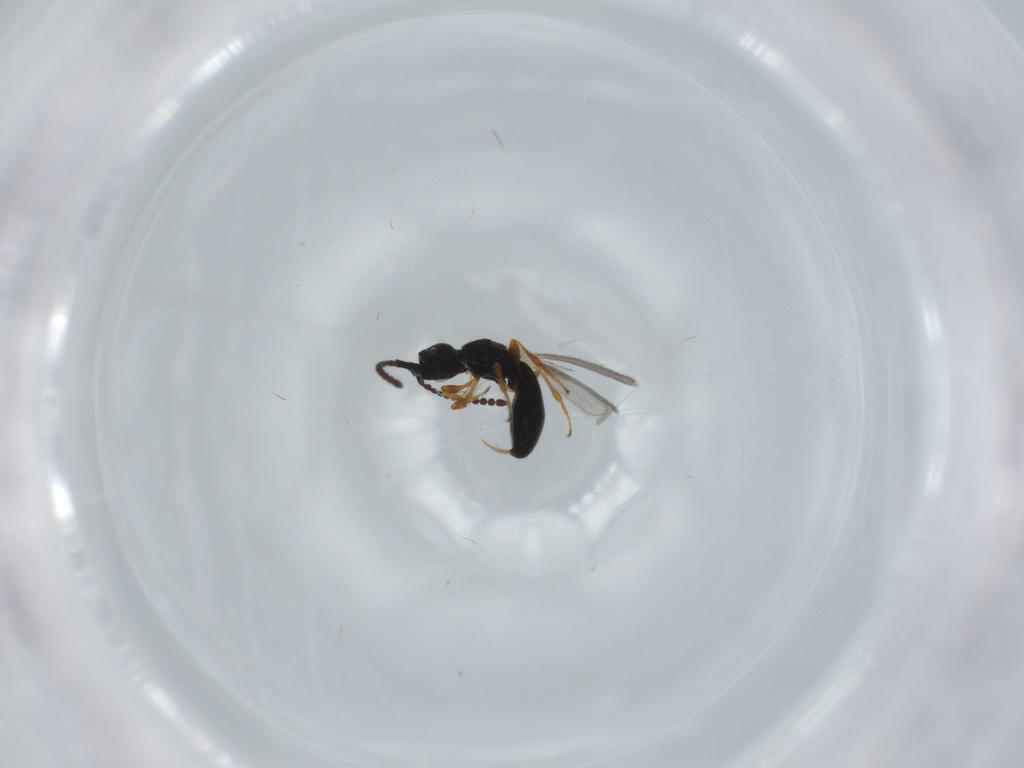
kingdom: Animalia
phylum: Arthropoda
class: Insecta
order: Hymenoptera
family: Diapriidae
